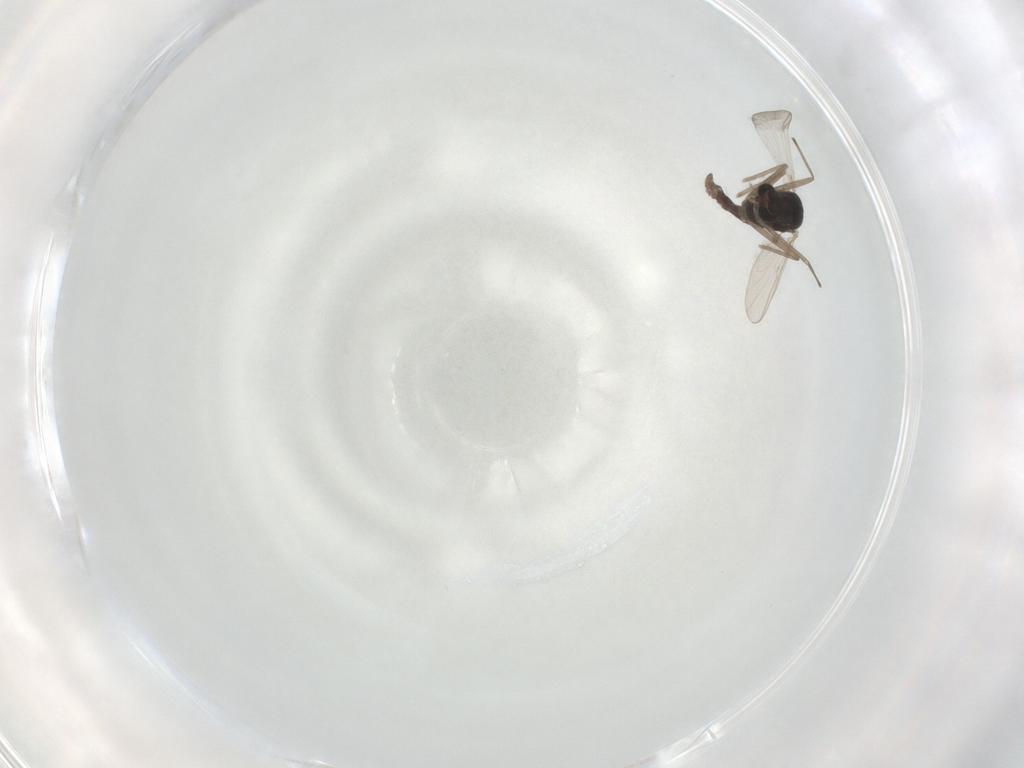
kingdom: Animalia
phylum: Arthropoda
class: Insecta
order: Diptera
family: Chironomidae
